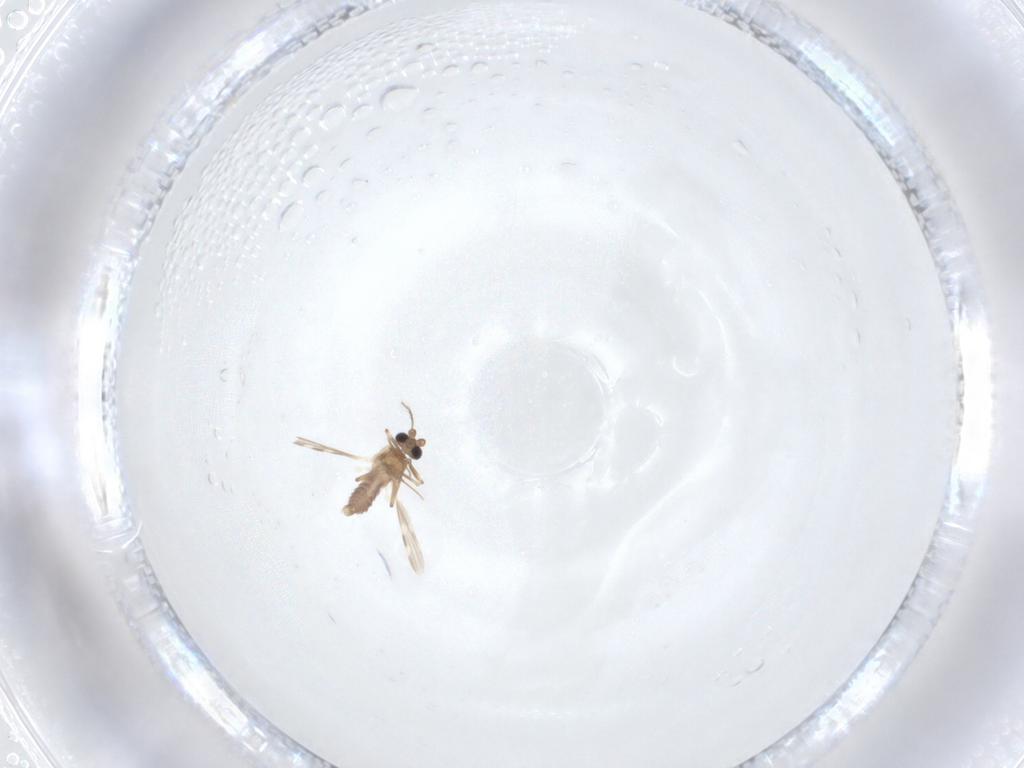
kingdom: Animalia
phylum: Arthropoda
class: Insecta
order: Diptera
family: Ceratopogonidae
